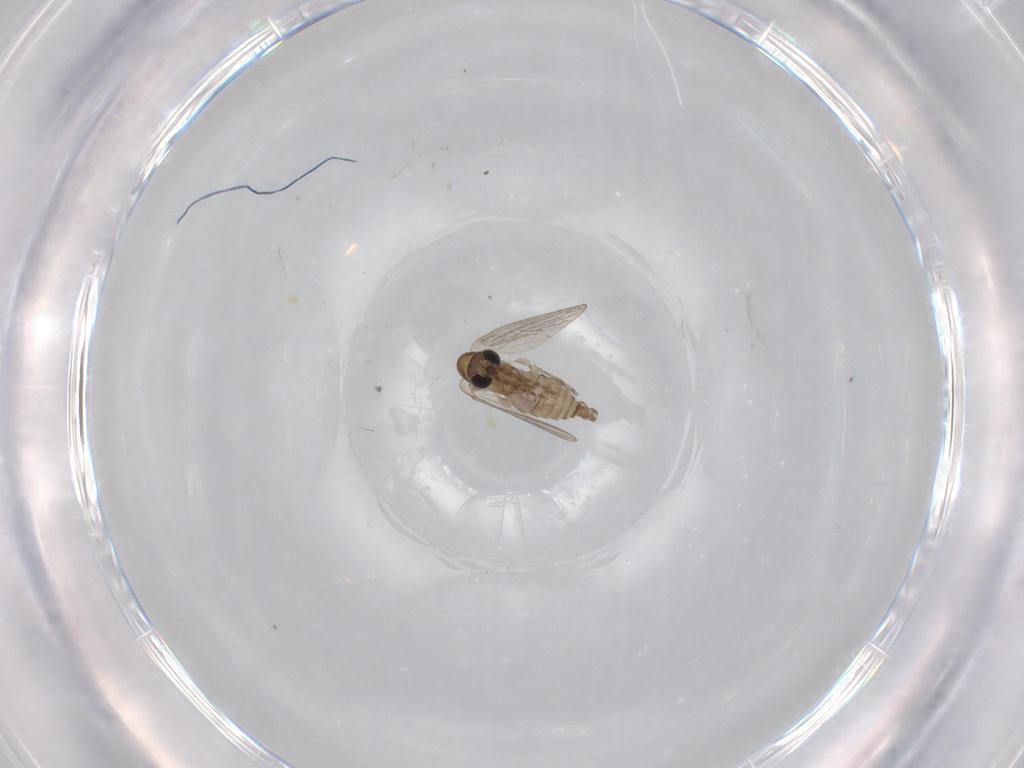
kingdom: Animalia
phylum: Arthropoda
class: Insecta
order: Diptera
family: Cecidomyiidae
